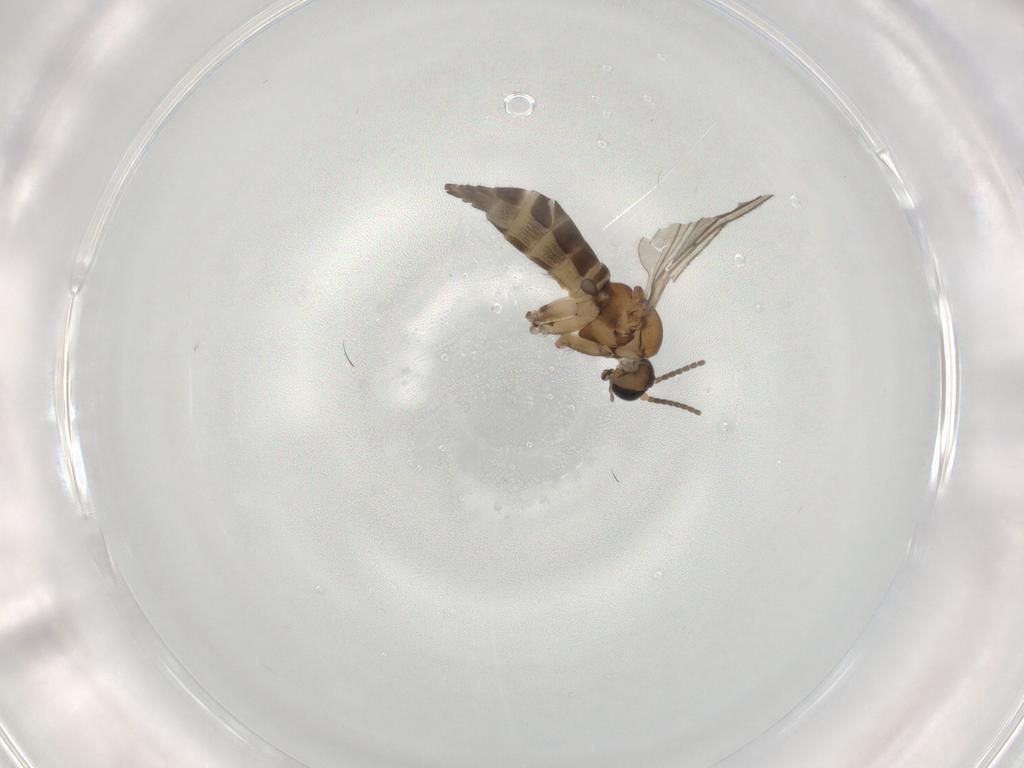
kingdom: Animalia
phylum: Arthropoda
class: Insecta
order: Diptera
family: Sciaridae
